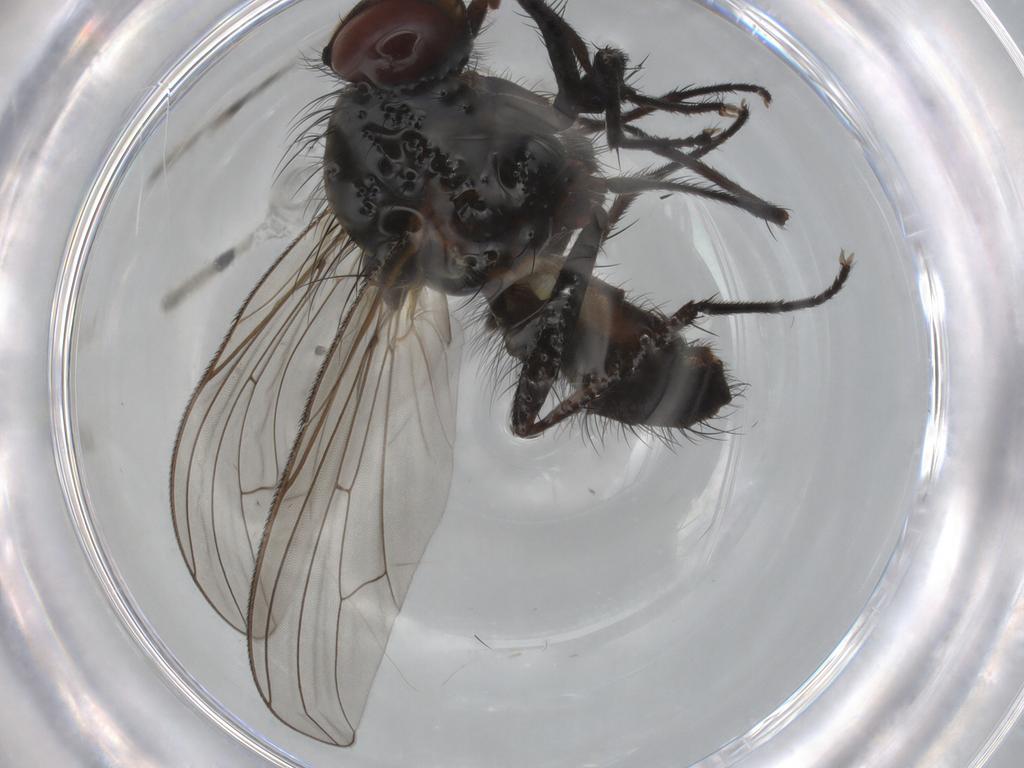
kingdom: Animalia
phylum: Arthropoda
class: Insecta
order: Diptera
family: Anthomyiidae
